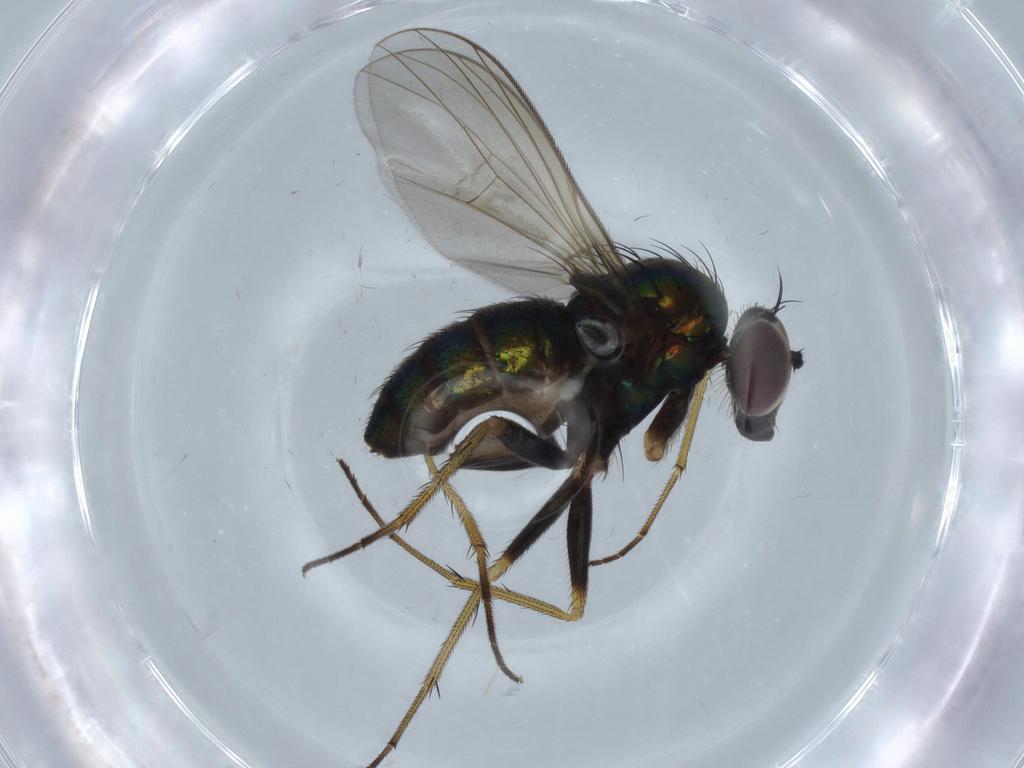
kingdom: Animalia
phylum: Arthropoda
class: Insecta
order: Diptera
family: Dolichopodidae
